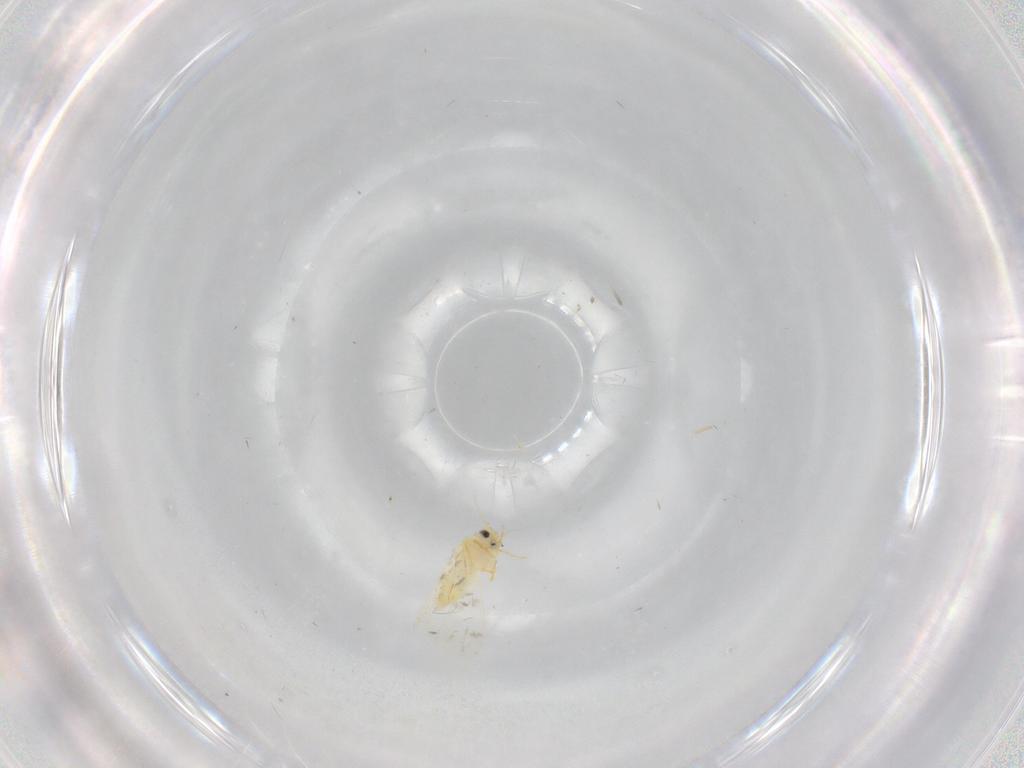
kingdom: Animalia
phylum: Arthropoda
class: Insecta
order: Hemiptera
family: Aleyrodidae
